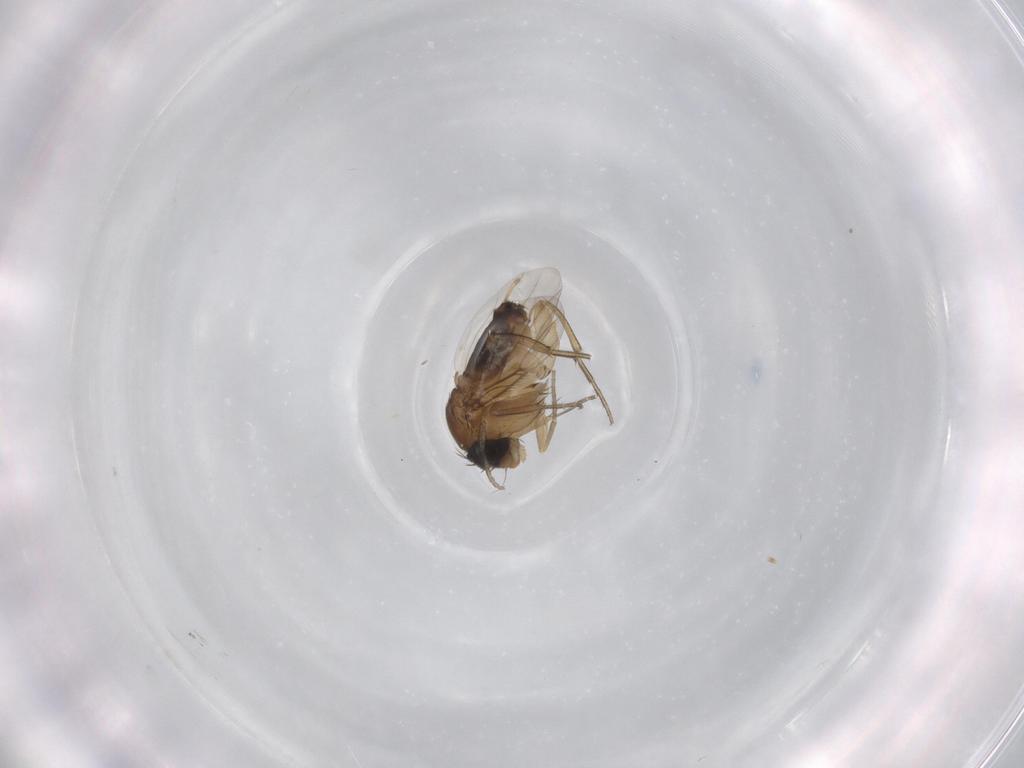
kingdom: Animalia
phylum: Arthropoda
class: Insecta
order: Diptera
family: Phoridae
